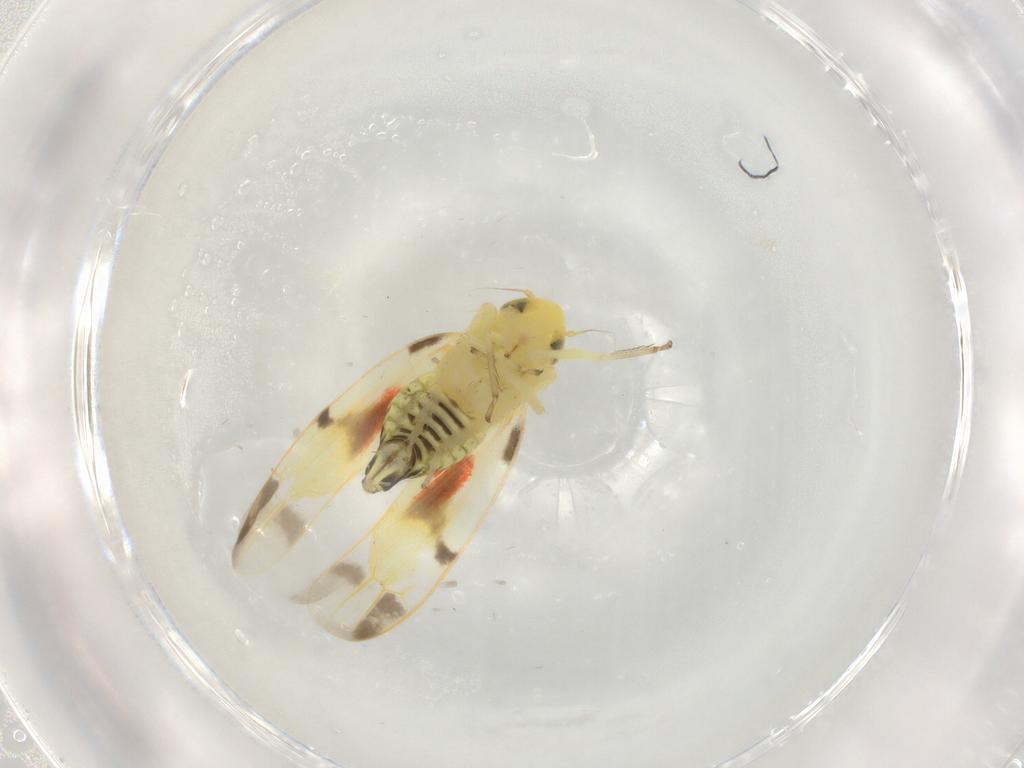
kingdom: Animalia
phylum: Arthropoda
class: Insecta
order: Hemiptera
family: Cicadellidae
